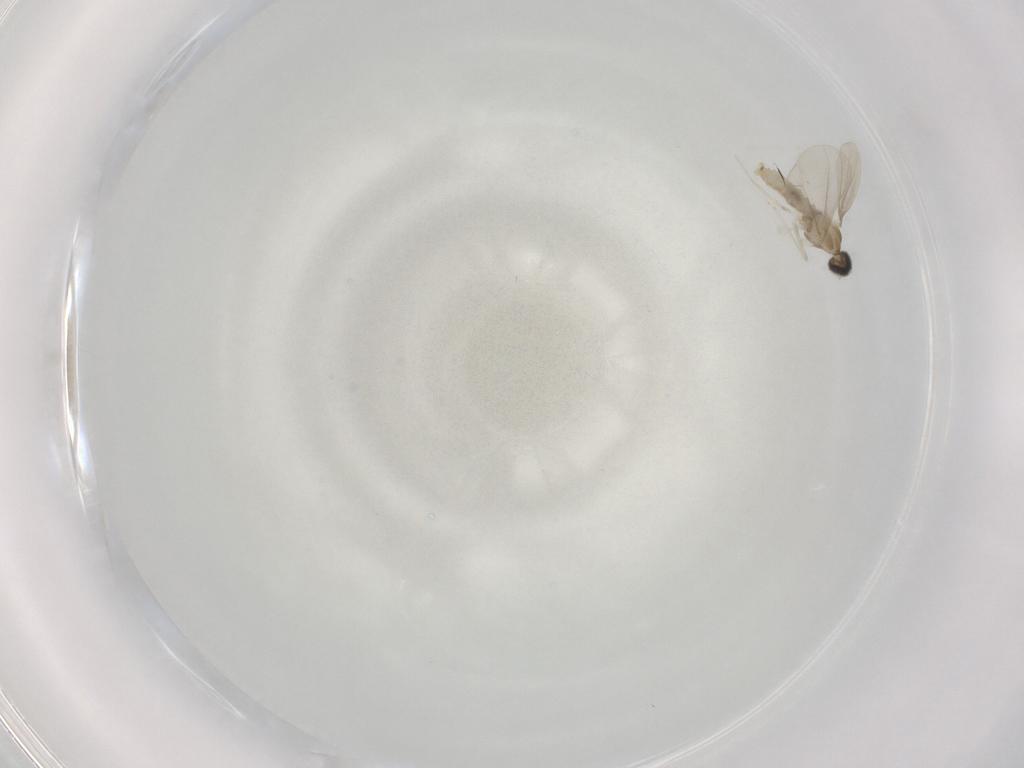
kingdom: Animalia
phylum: Arthropoda
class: Insecta
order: Diptera
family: Cecidomyiidae
